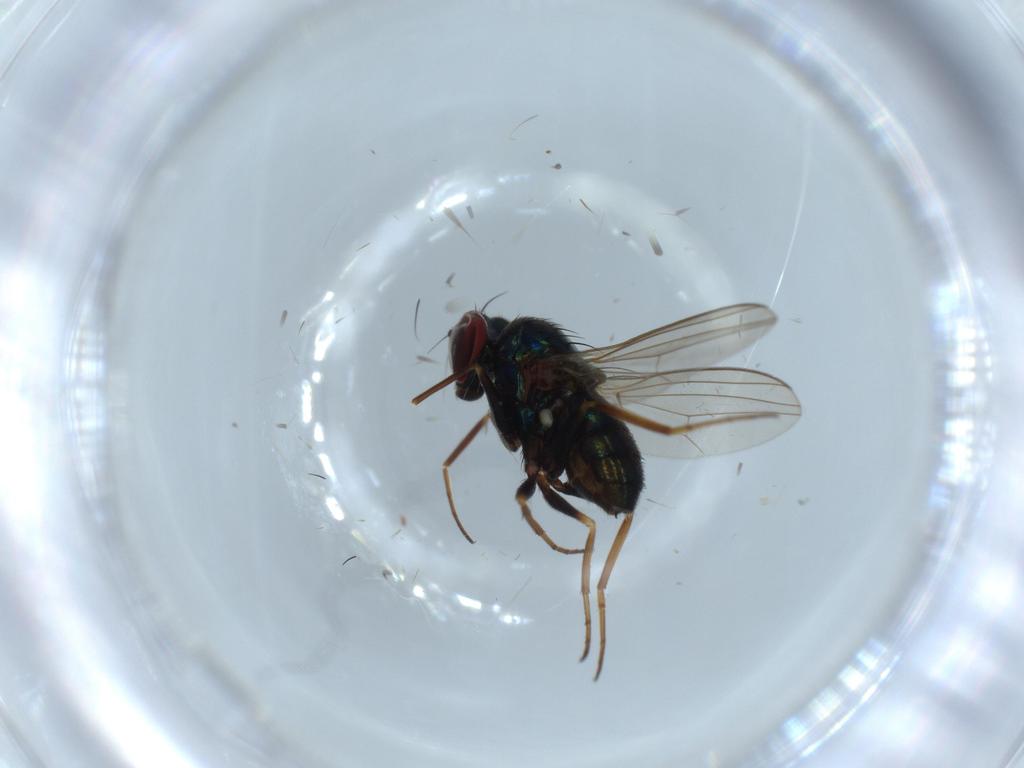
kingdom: Animalia
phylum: Arthropoda
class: Insecta
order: Diptera
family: Dolichopodidae
